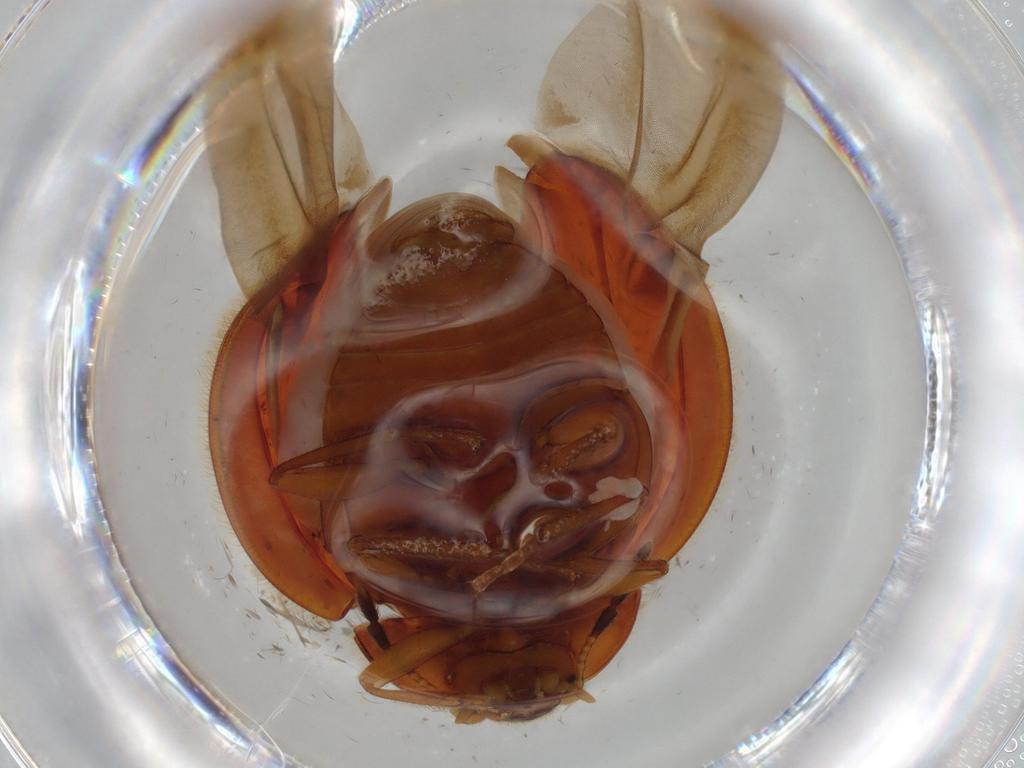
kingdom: Animalia
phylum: Arthropoda
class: Insecta
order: Coleoptera
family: Anamorphidae
